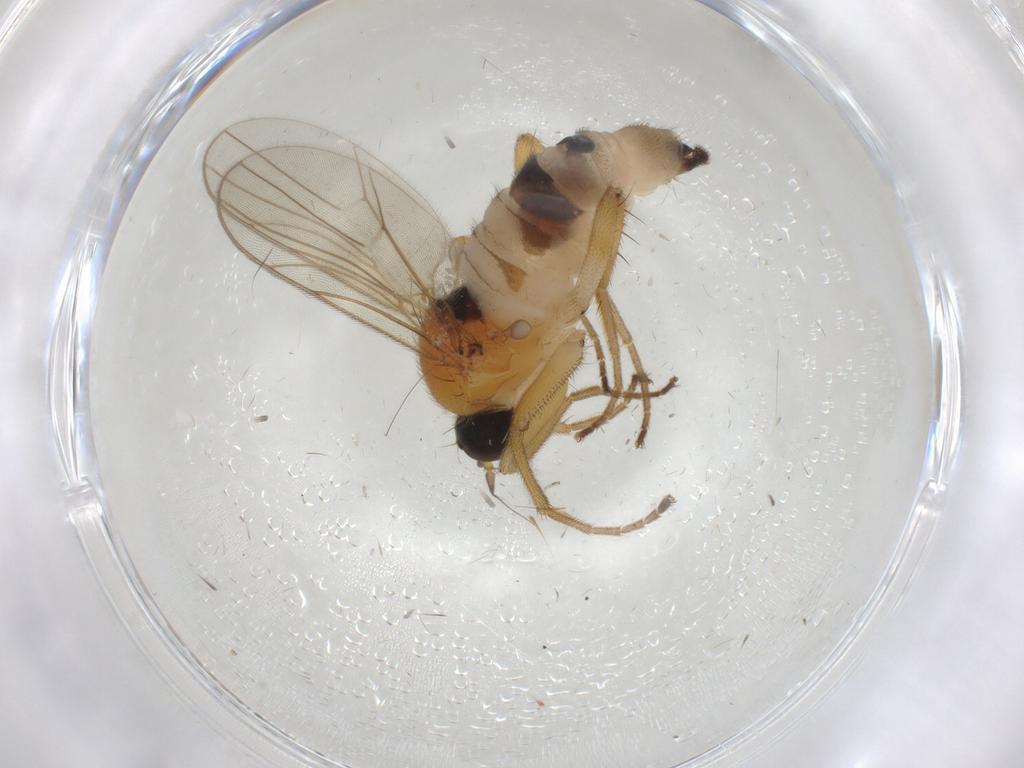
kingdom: Animalia
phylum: Arthropoda
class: Insecta
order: Diptera
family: Hybotidae
